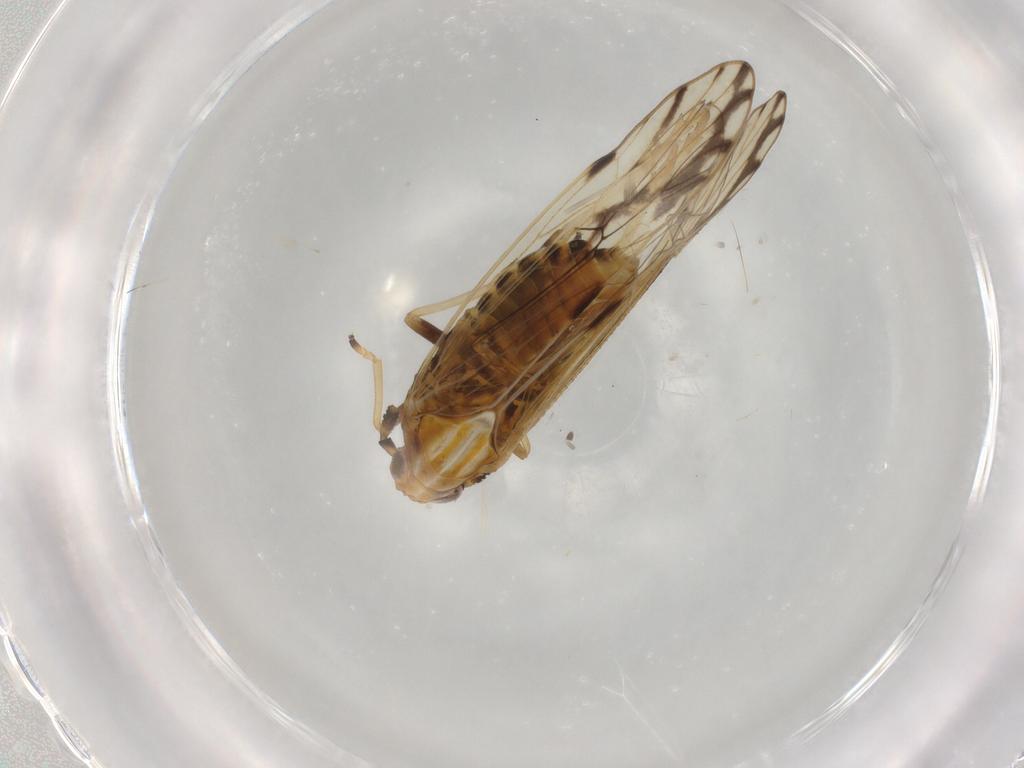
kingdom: Animalia
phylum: Arthropoda
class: Insecta
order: Hemiptera
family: Delphacidae
